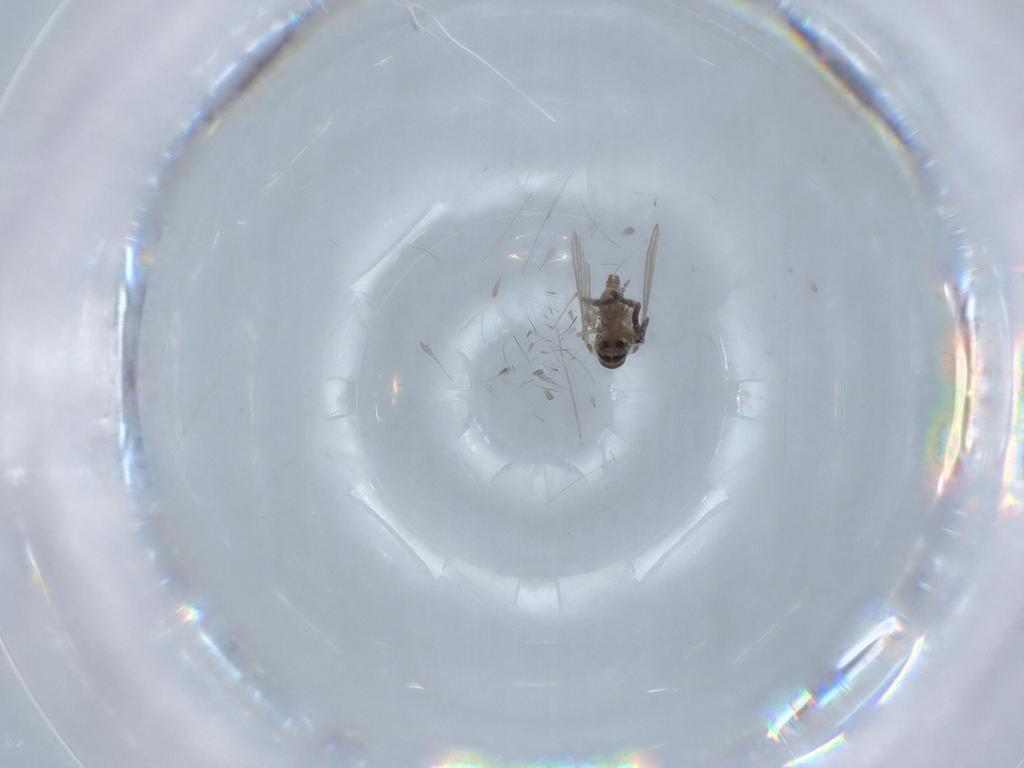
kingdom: Animalia
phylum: Arthropoda
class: Insecta
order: Diptera
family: Psychodidae
